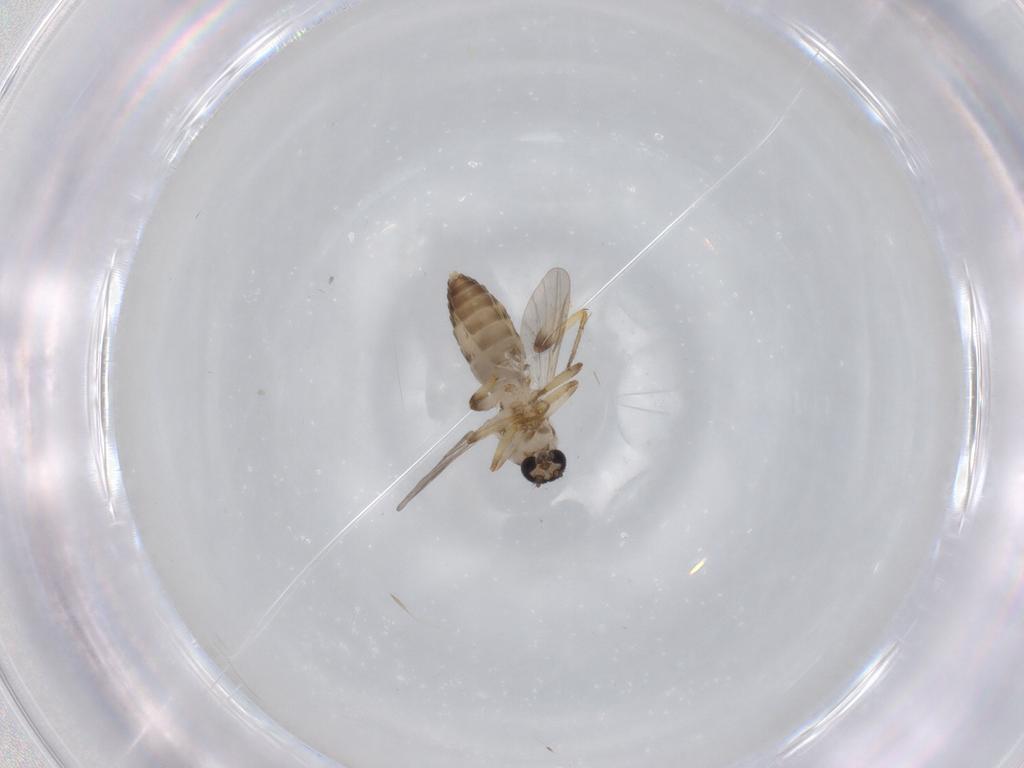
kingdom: Animalia
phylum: Arthropoda
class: Insecta
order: Diptera
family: Ceratopogonidae
